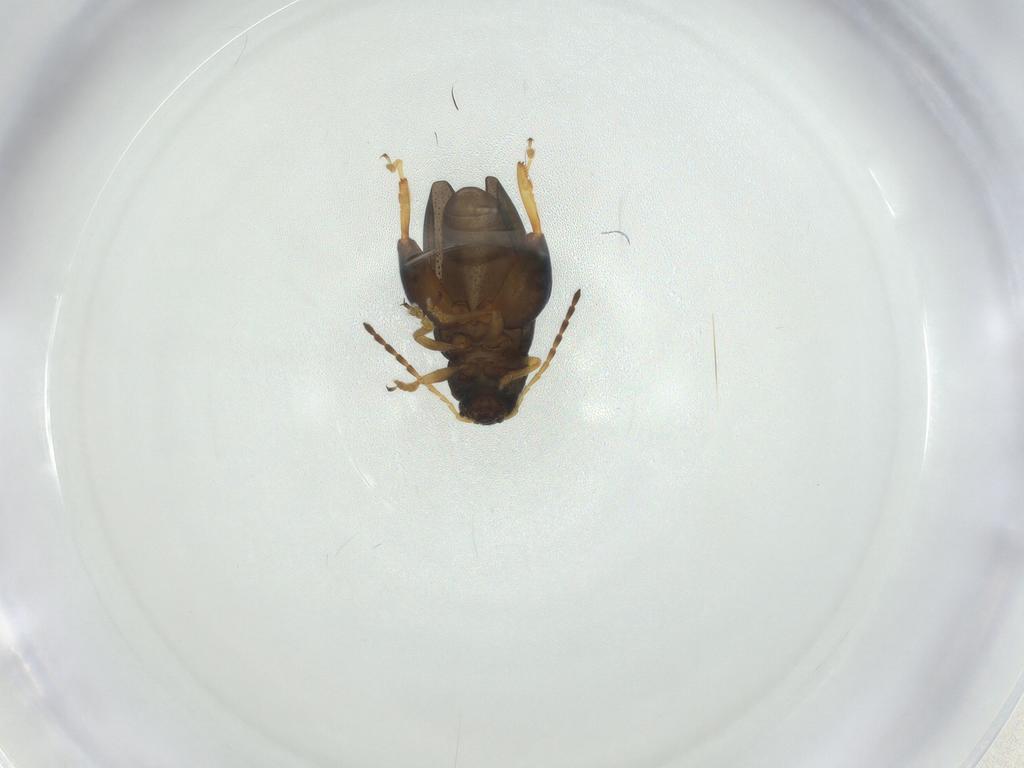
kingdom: Animalia
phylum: Arthropoda
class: Insecta
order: Coleoptera
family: Chrysomelidae
